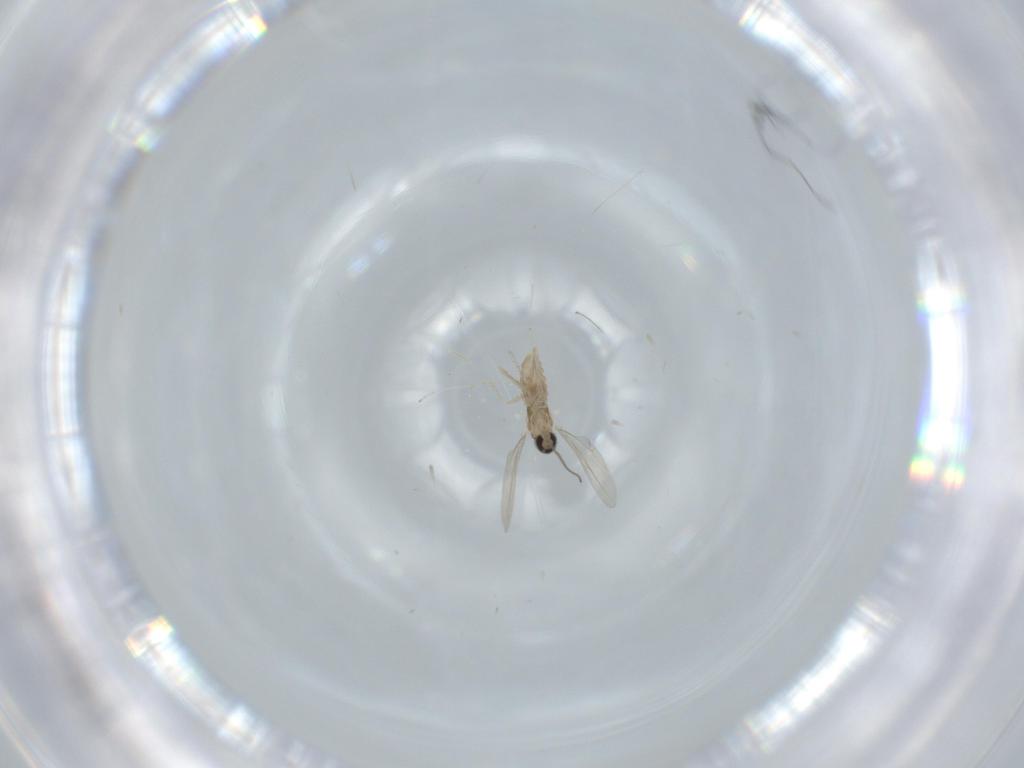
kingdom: Animalia
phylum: Arthropoda
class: Insecta
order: Diptera
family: Cecidomyiidae
